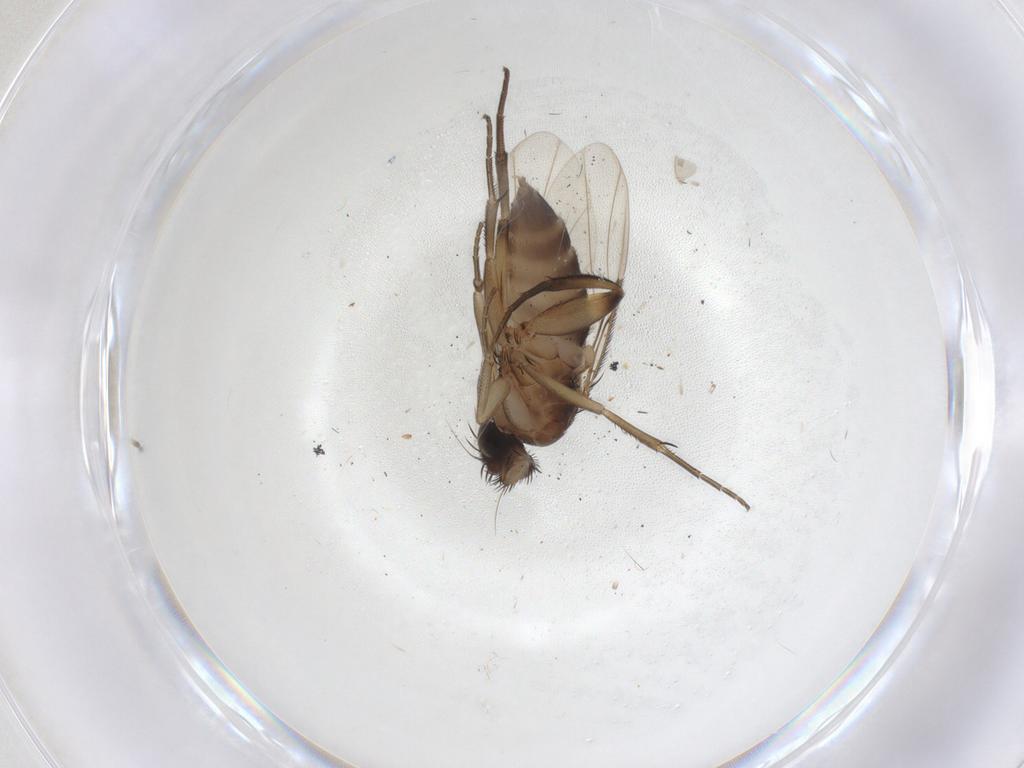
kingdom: Animalia
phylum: Arthropoda
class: Insecta
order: Diptera
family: Phoridae
